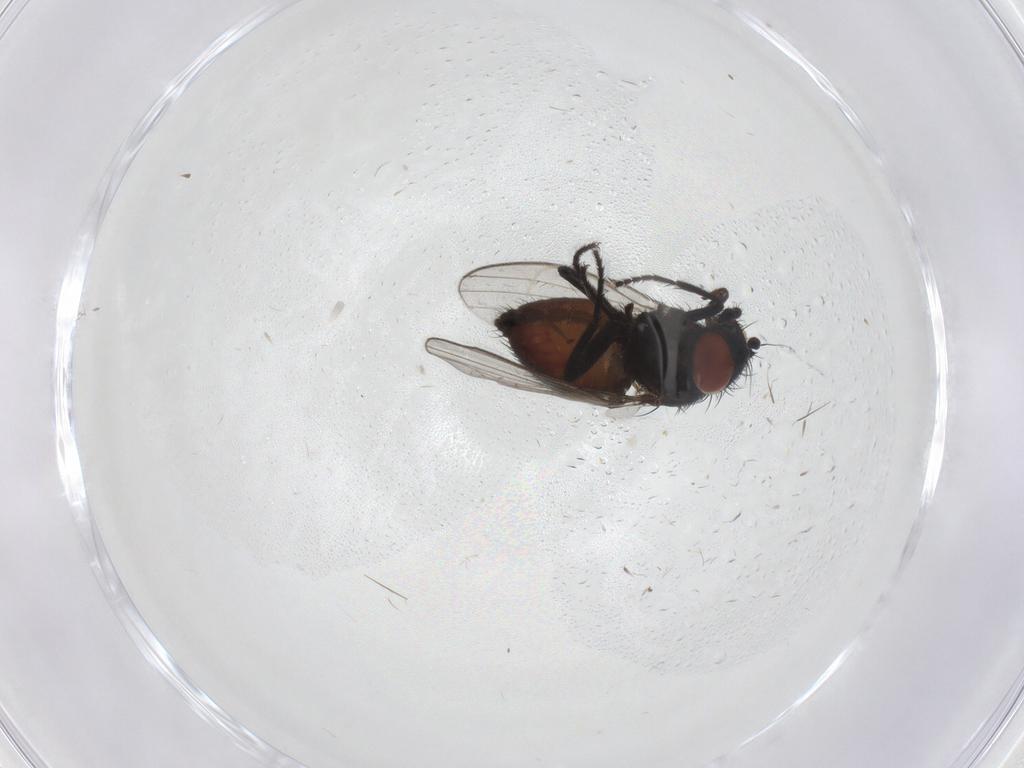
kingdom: Animalia
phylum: Arthropoda
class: Insecta
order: Diptera
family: Milichiidae
